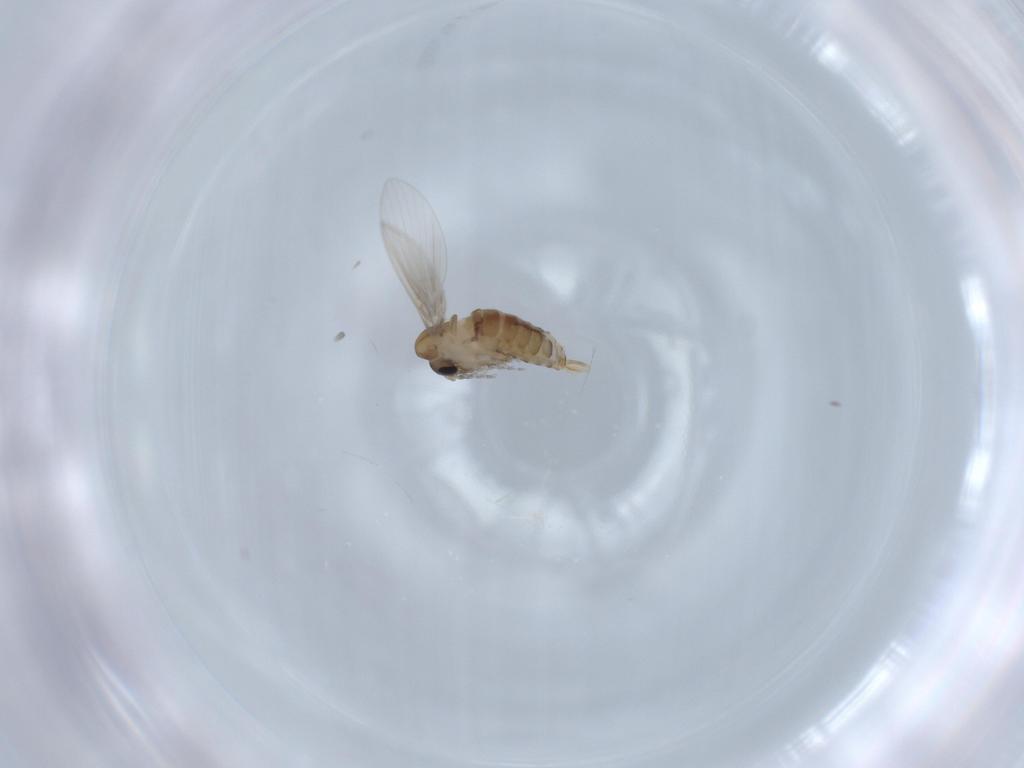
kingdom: Animalia
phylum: Arthropoda
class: Insecta
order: Diptera
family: Psychodidae
